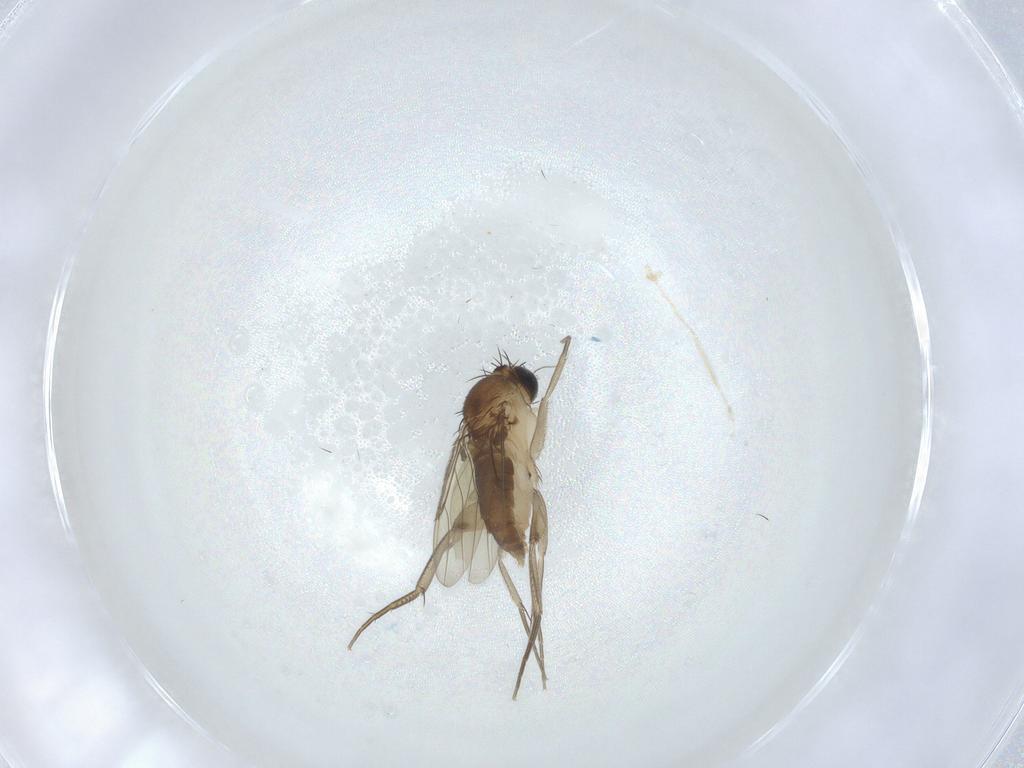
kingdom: Animalia
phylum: Arthropoda
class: Insecta
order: Diptera
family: Phoridae
